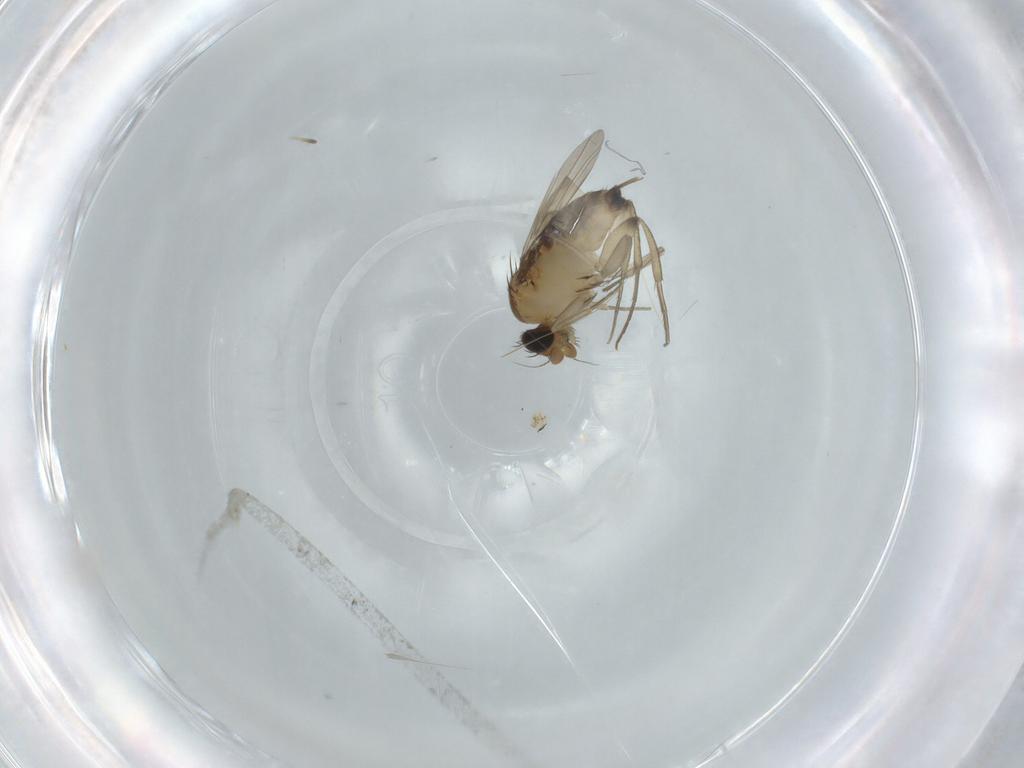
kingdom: Animalia
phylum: Arthropoda
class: Insecta
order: Diptera
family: Phoridae
